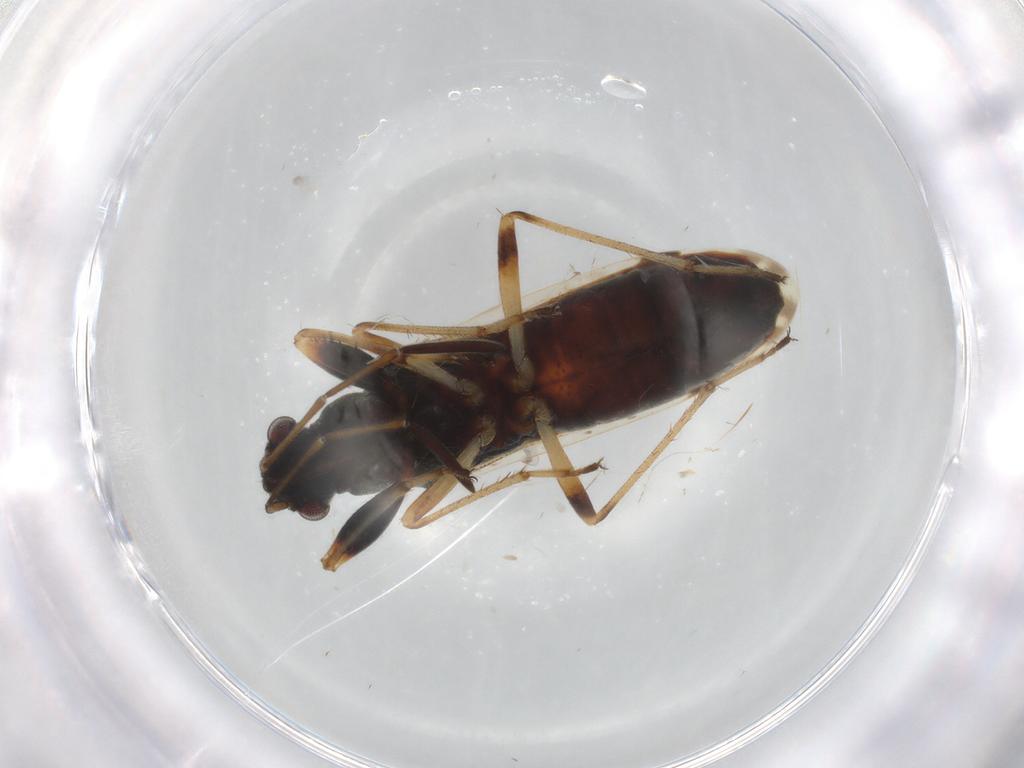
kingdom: Animalia
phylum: Arthropoda
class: Insecta
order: Hemiptera
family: Rhyparochromidae
